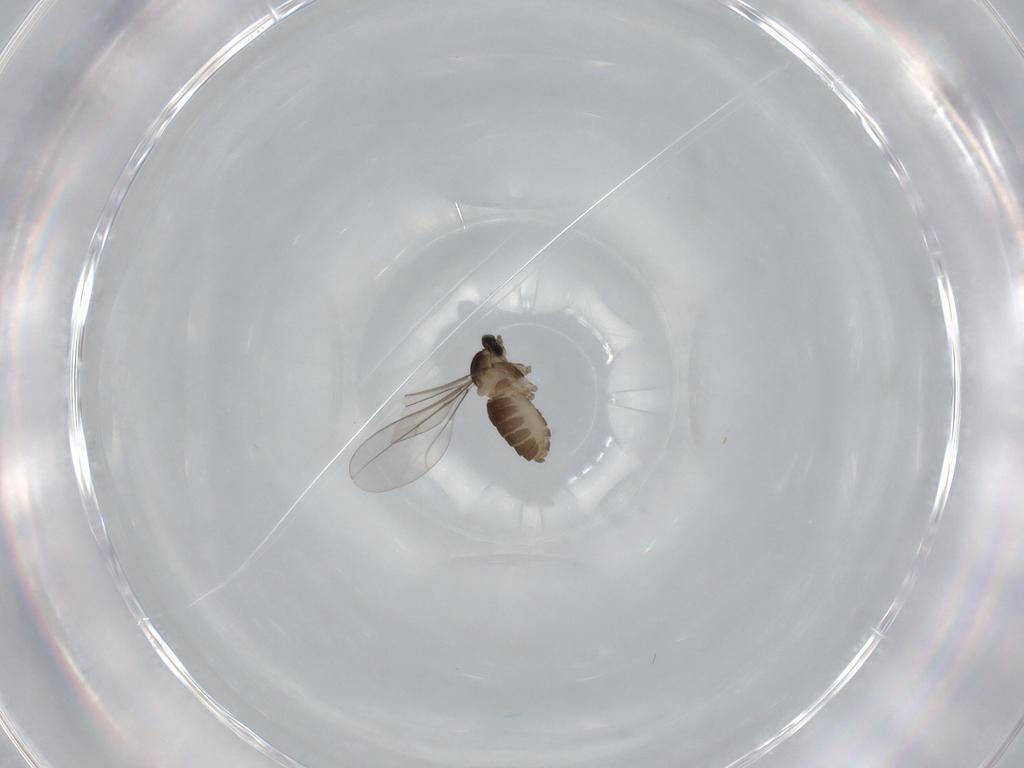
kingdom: Animalia
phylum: Arthropoda
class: Insecta
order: Diptera
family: Cecidomyiidae
